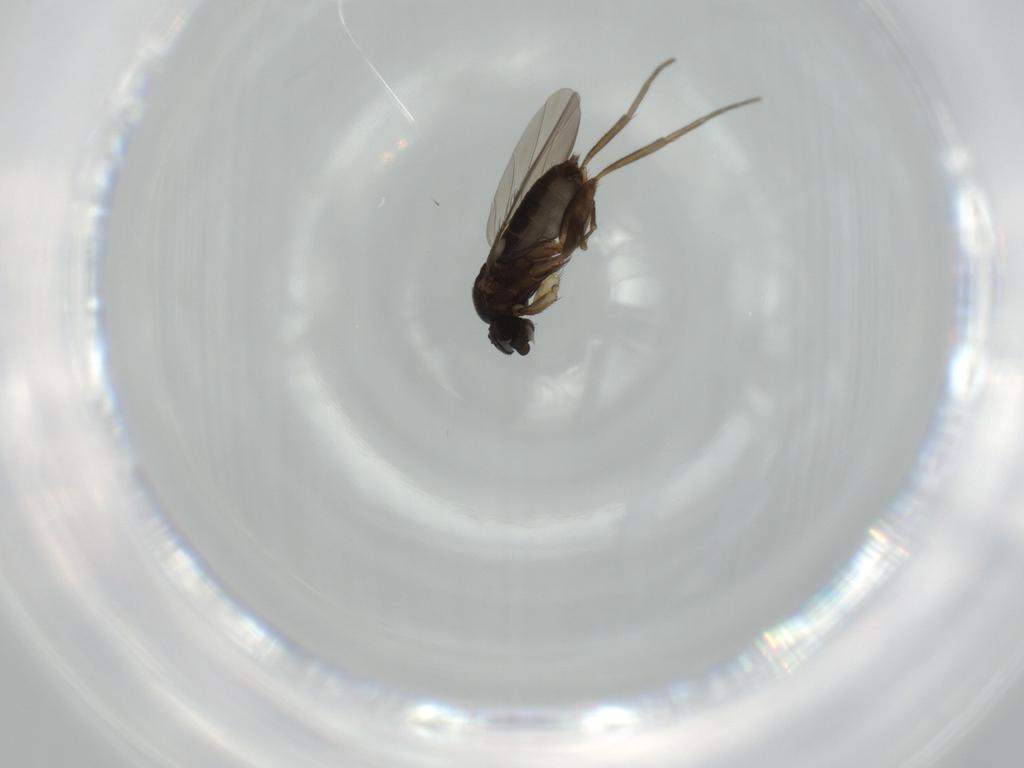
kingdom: Animalia
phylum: Arthropoda
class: Insecta
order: Diptera
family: Phoridae
